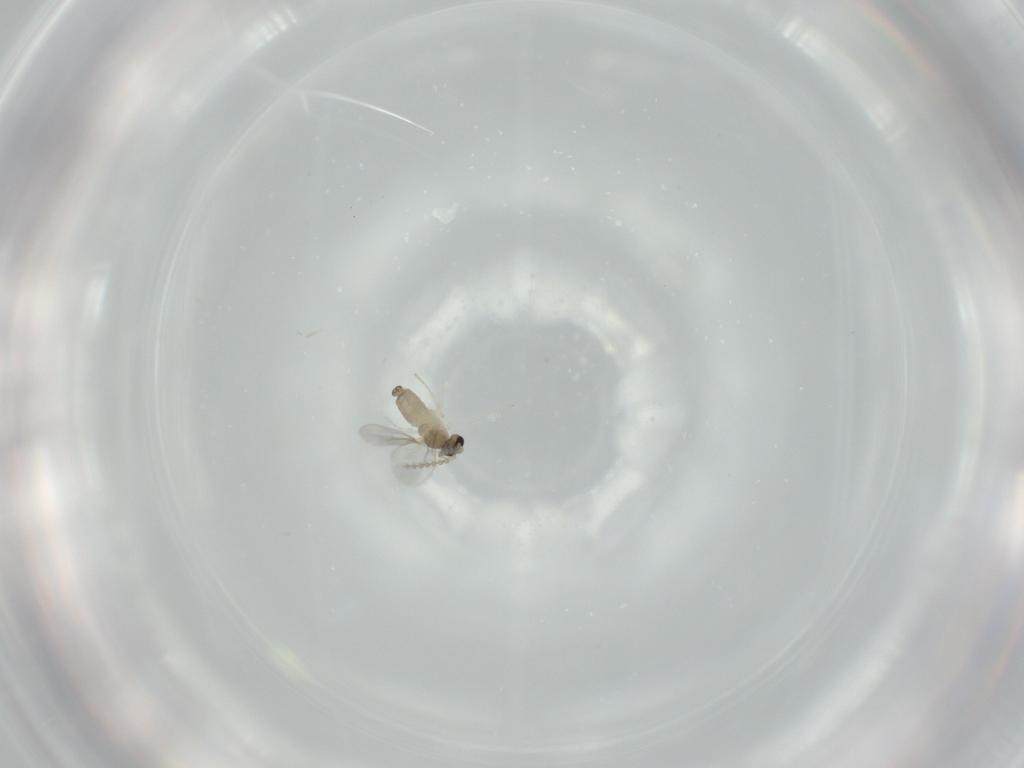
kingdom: Animalia
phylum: Arthropoda
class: Insecta
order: Diptera
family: Cecidomyiidae
